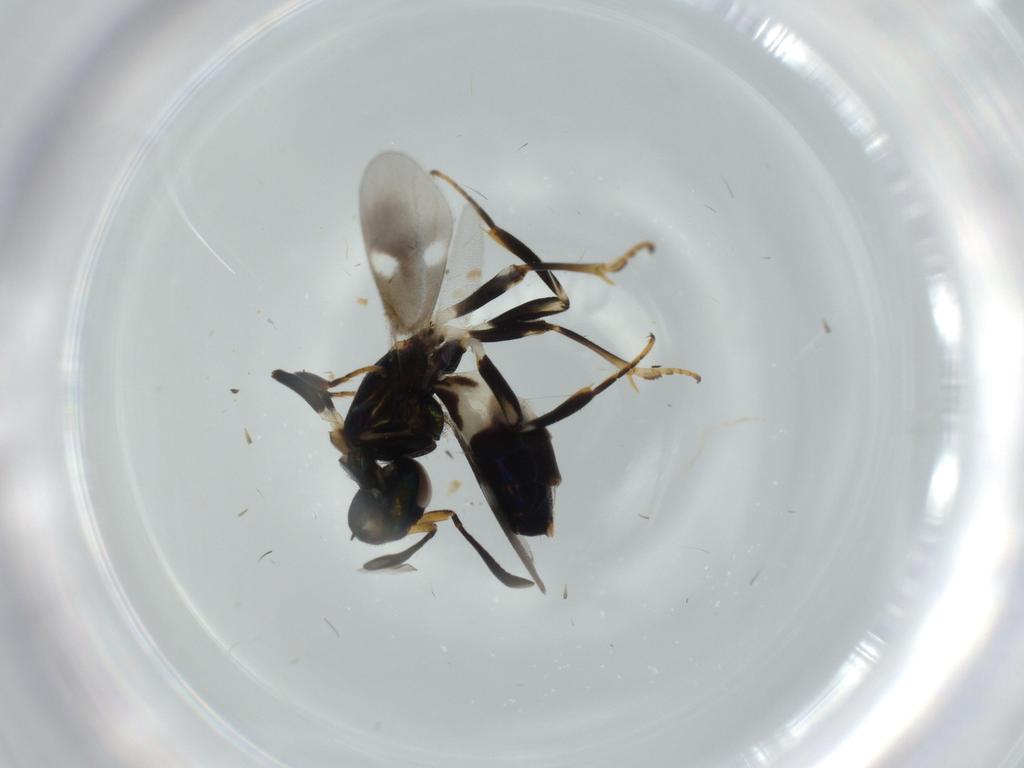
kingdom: Animalia
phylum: Arthropoda
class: Insecta
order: Hymenoptera
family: Eupelmidae
